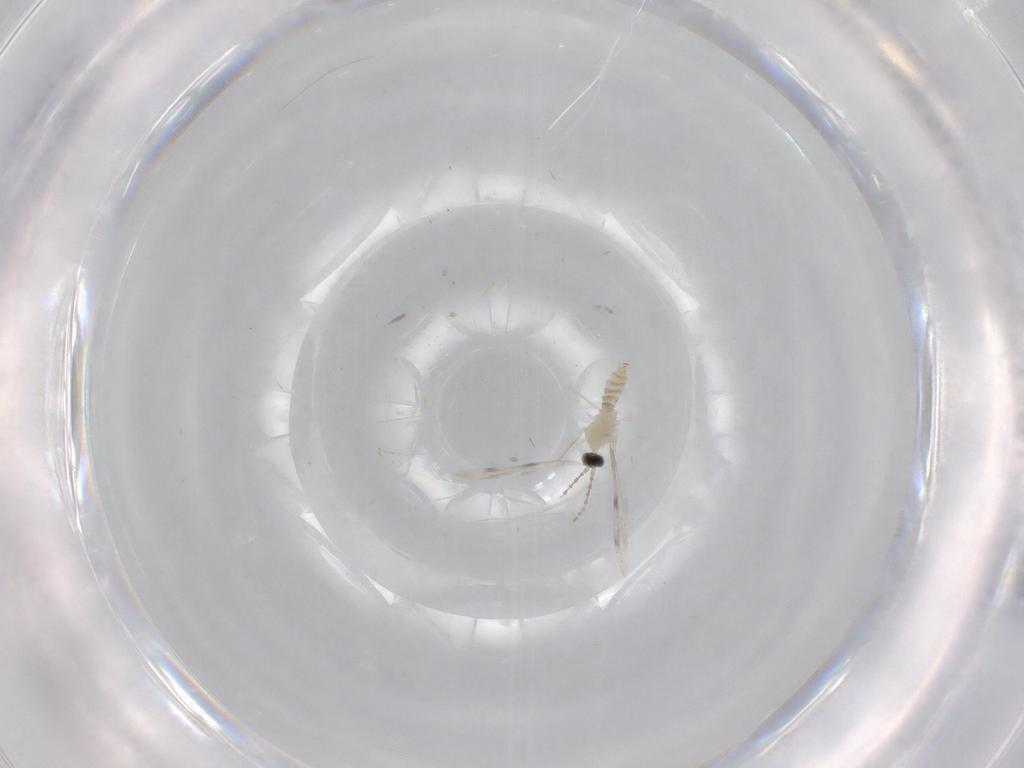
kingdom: Animalia
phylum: Arthropoda
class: Insecta
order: Diptera
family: Cecidomyiidae
